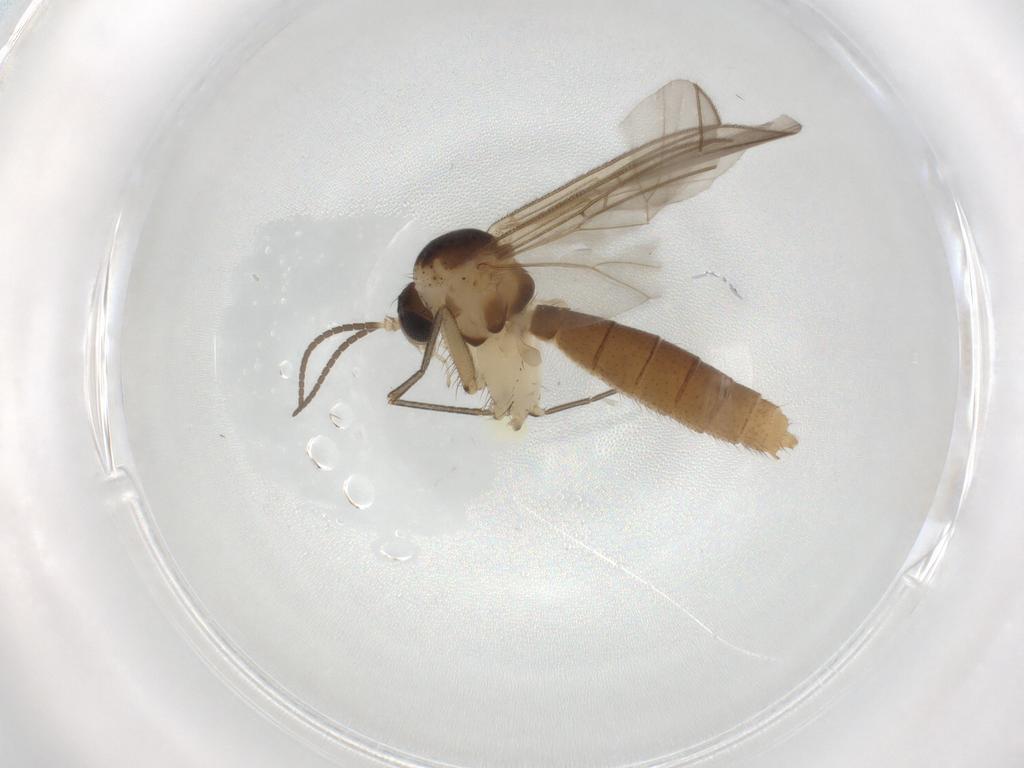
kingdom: Animalia
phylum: Arthropoda
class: Insecta
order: Diptera
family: Mycetophilidae
